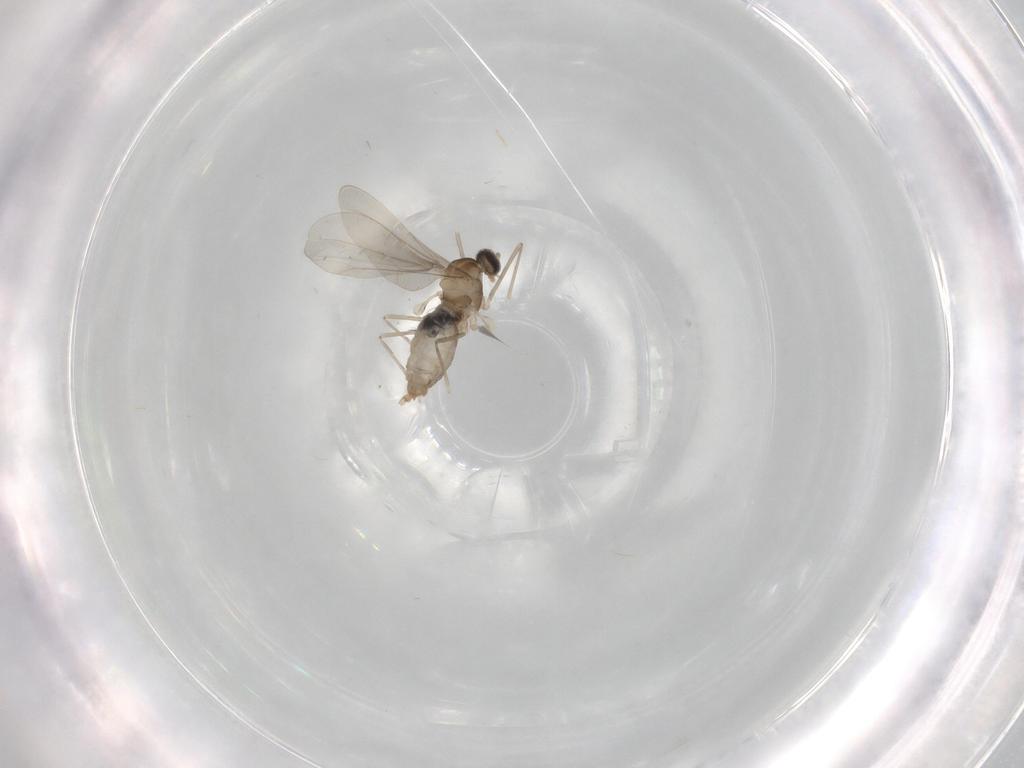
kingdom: Animalia
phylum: Arthropoda
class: Insecta
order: Diptera
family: Cecidomyiidae
